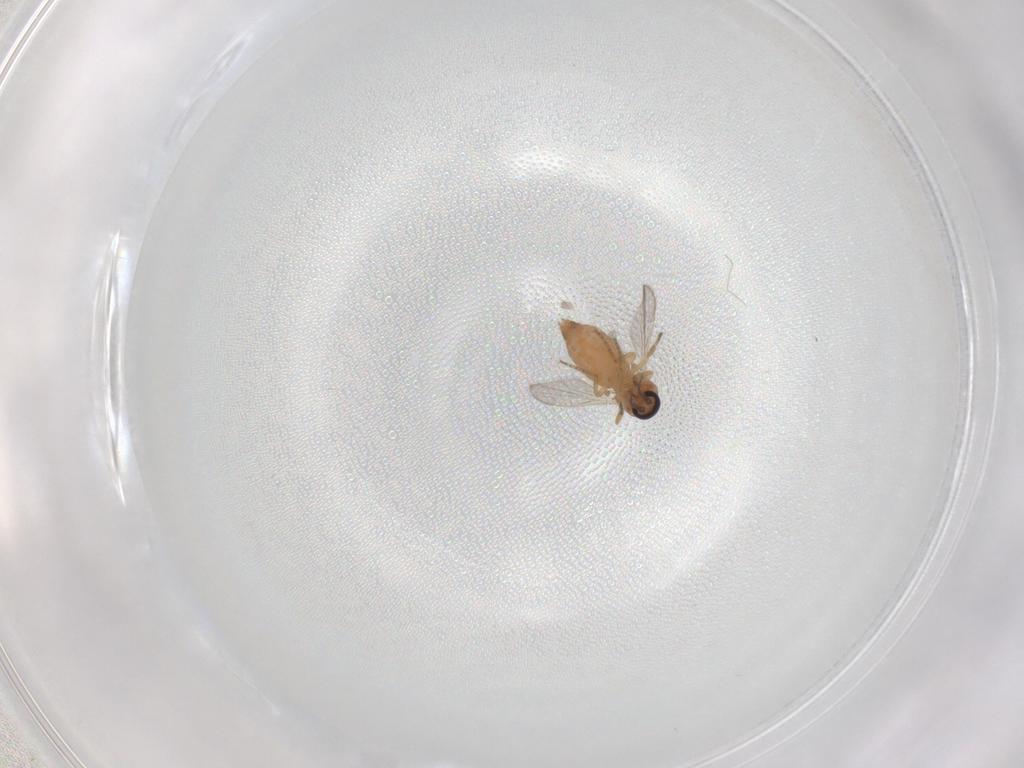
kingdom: Animalia
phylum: Arthropoda
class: Insecta
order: Diptera
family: Ceratopogonidae
